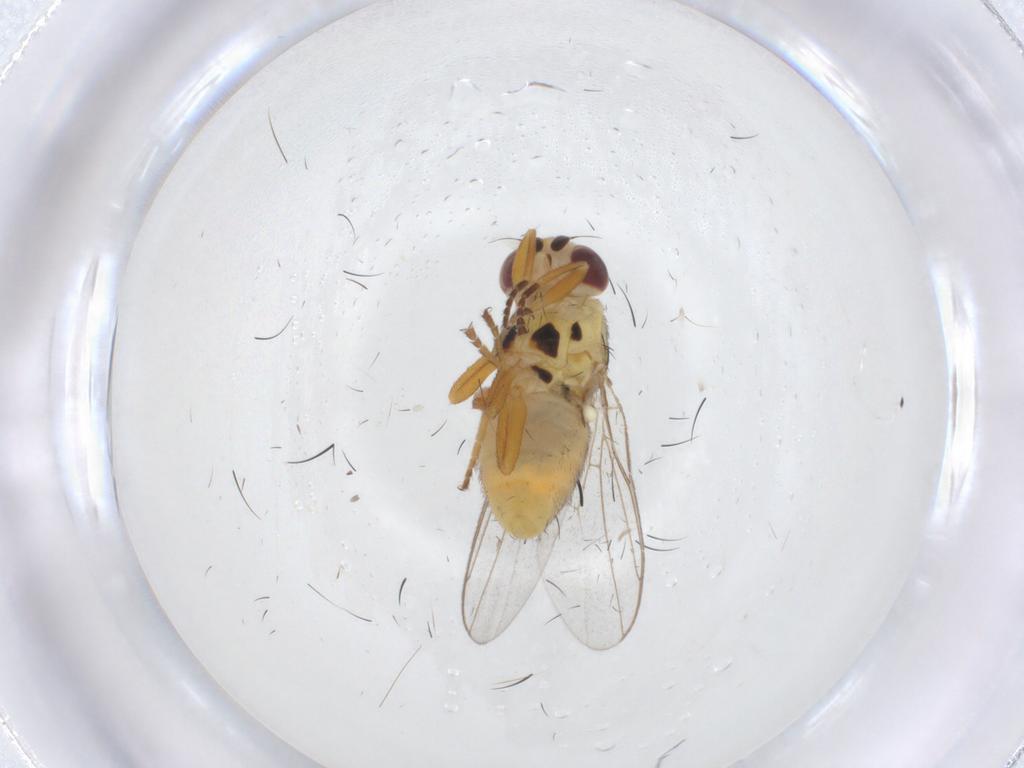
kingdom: Animalia
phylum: Arthropoda
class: Insecta
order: Diptera
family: Chloropidae
